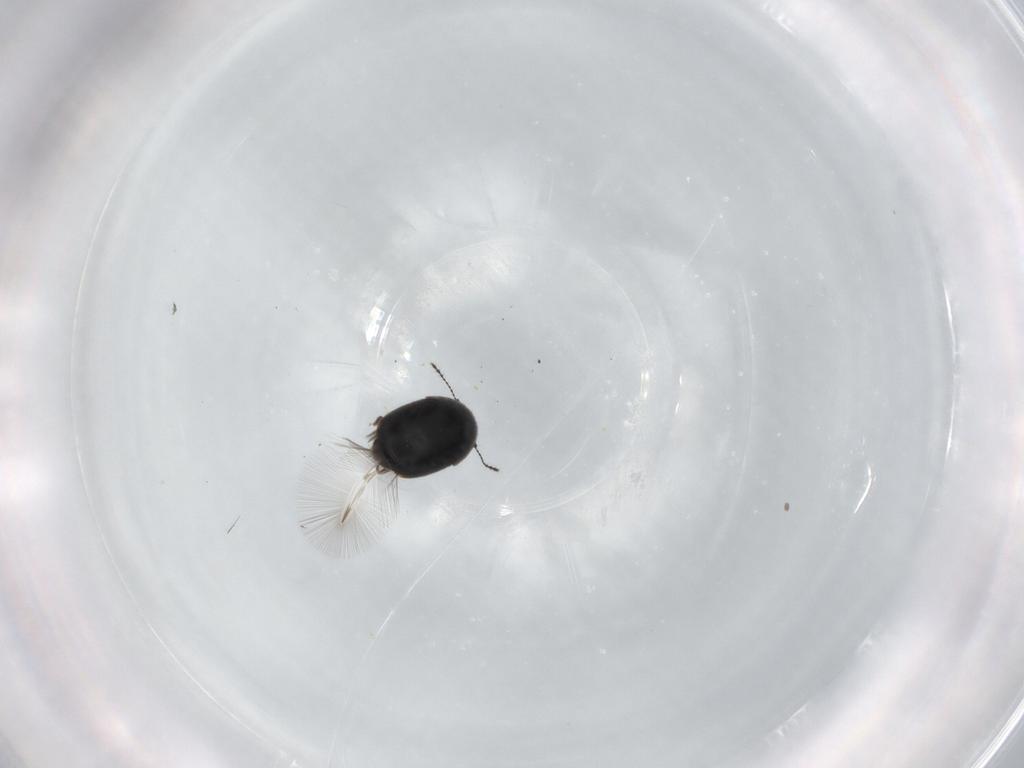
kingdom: Animalia
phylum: Arthropoda
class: Insecta
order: Coleoptera
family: Ptiliidae
